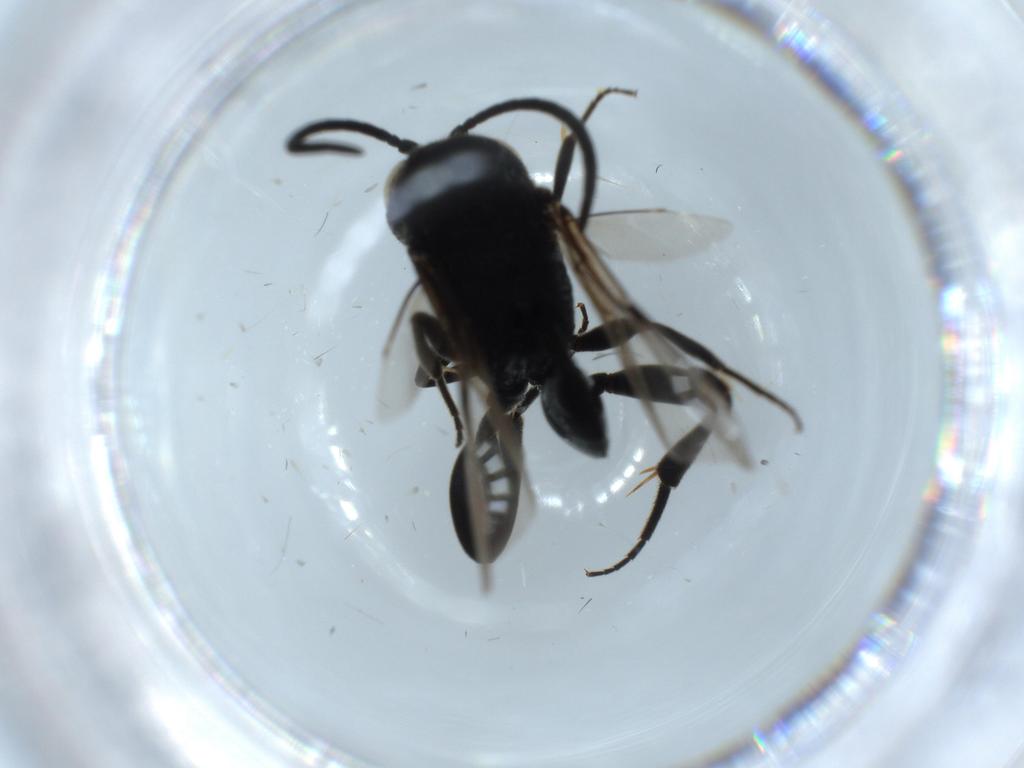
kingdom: Animalia
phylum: Arthropoda
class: Insecta
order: Hymenoptera
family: Evaniidae
